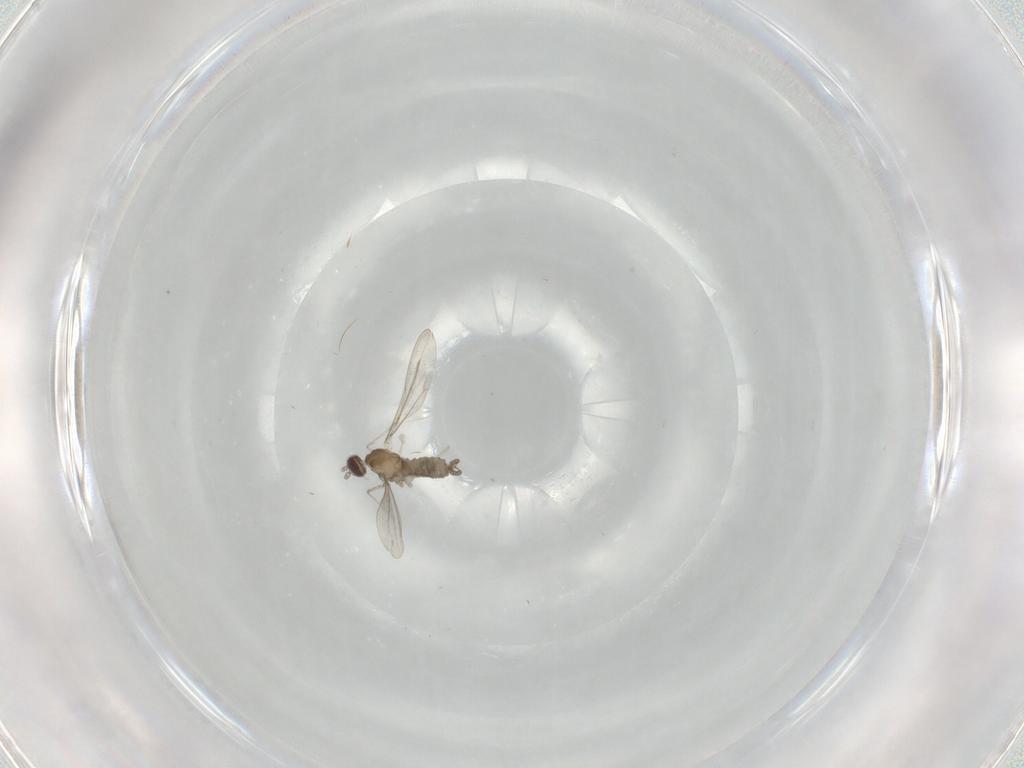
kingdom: Animalia
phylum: Arthropoda
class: Insecta
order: Diptera
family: Cecidomyiidae
